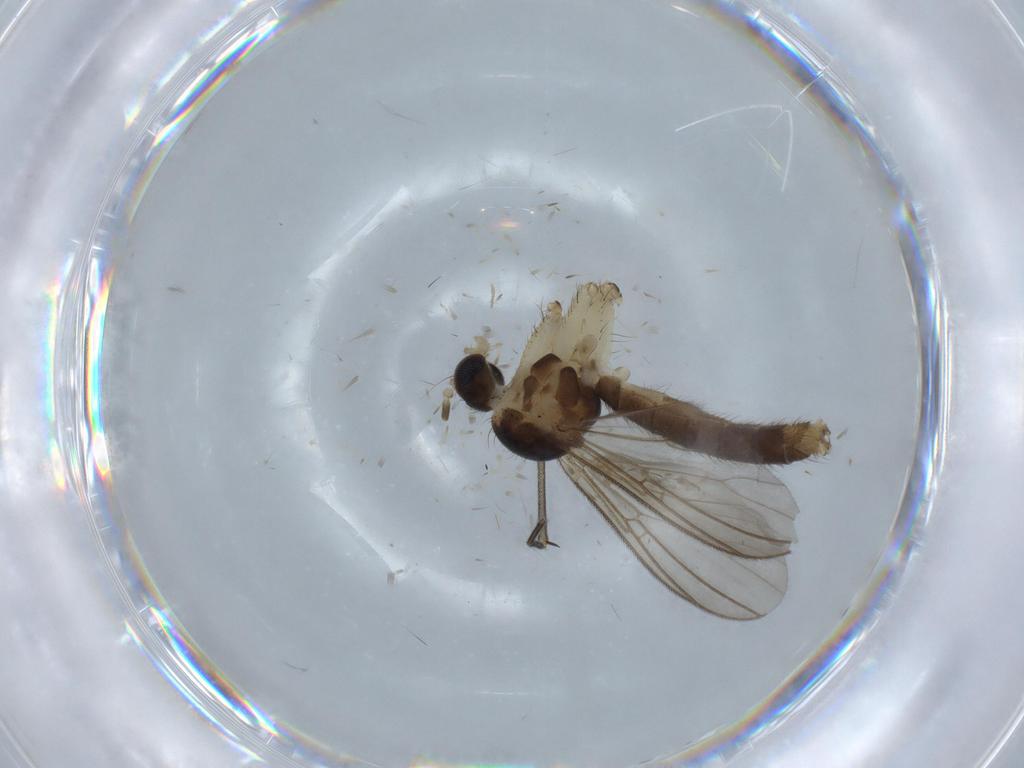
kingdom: Animalia
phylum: Arthropoda
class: Insecta
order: Diptera
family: Mycetophilidae
